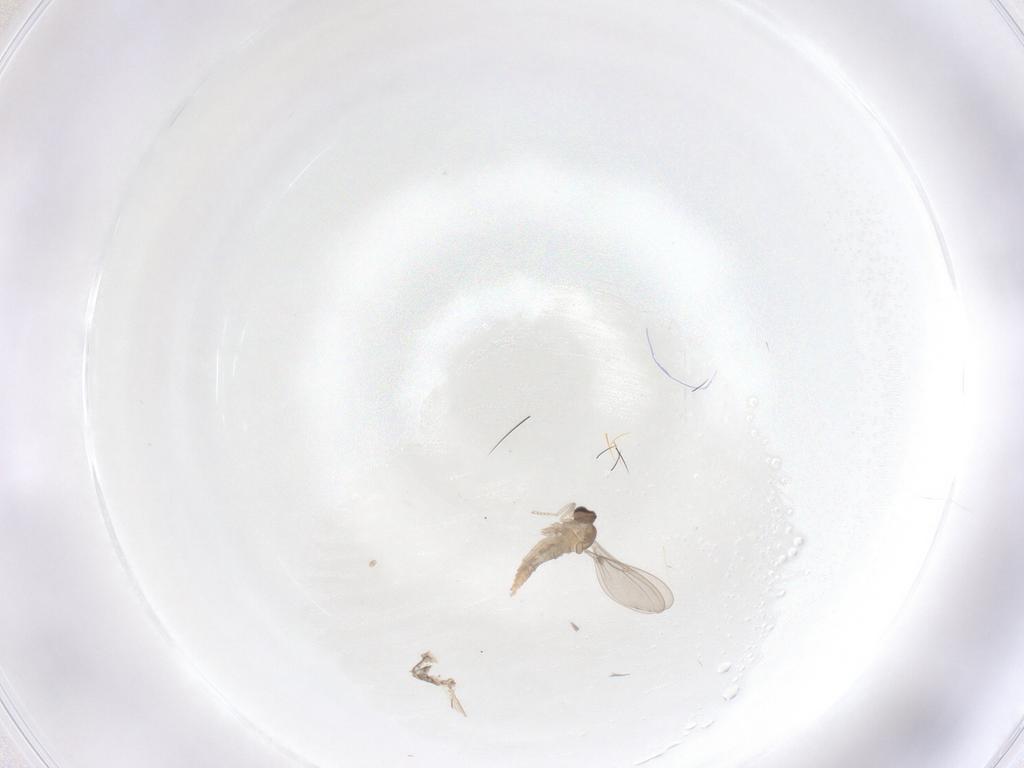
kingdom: Animalia
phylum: Arthropoda
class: Insecta
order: Diptera
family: Cecidomyiidae
